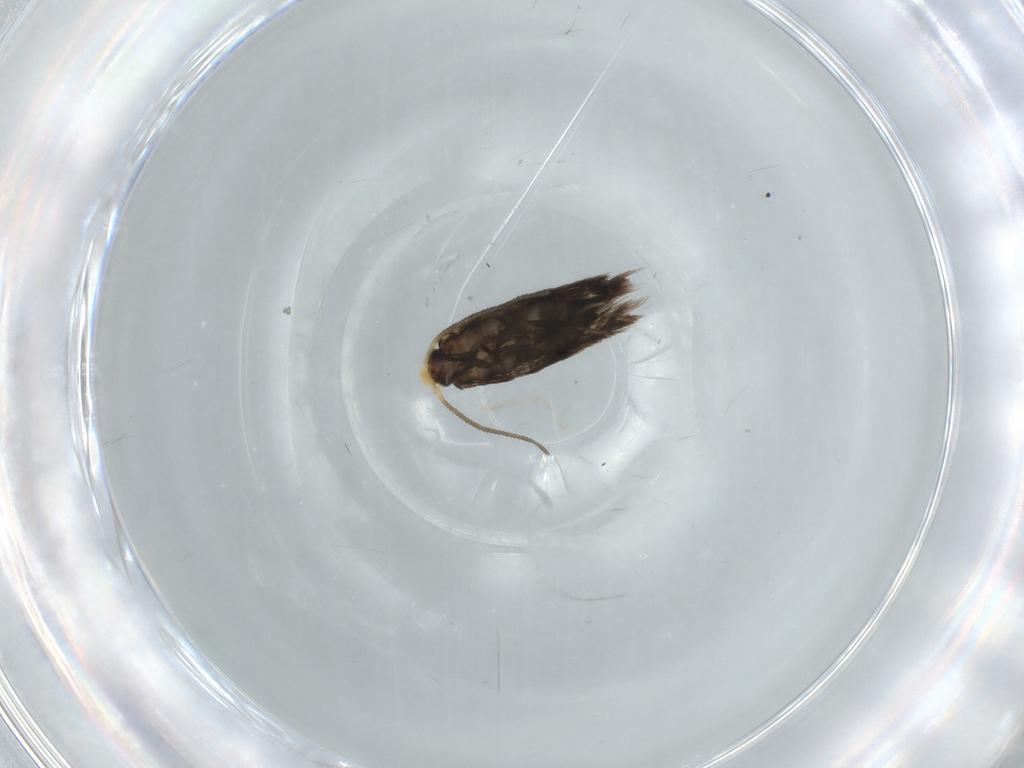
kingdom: Animalia
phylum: Arthropoda
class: Insecta
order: Lepidoptera
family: Nepticulidae
